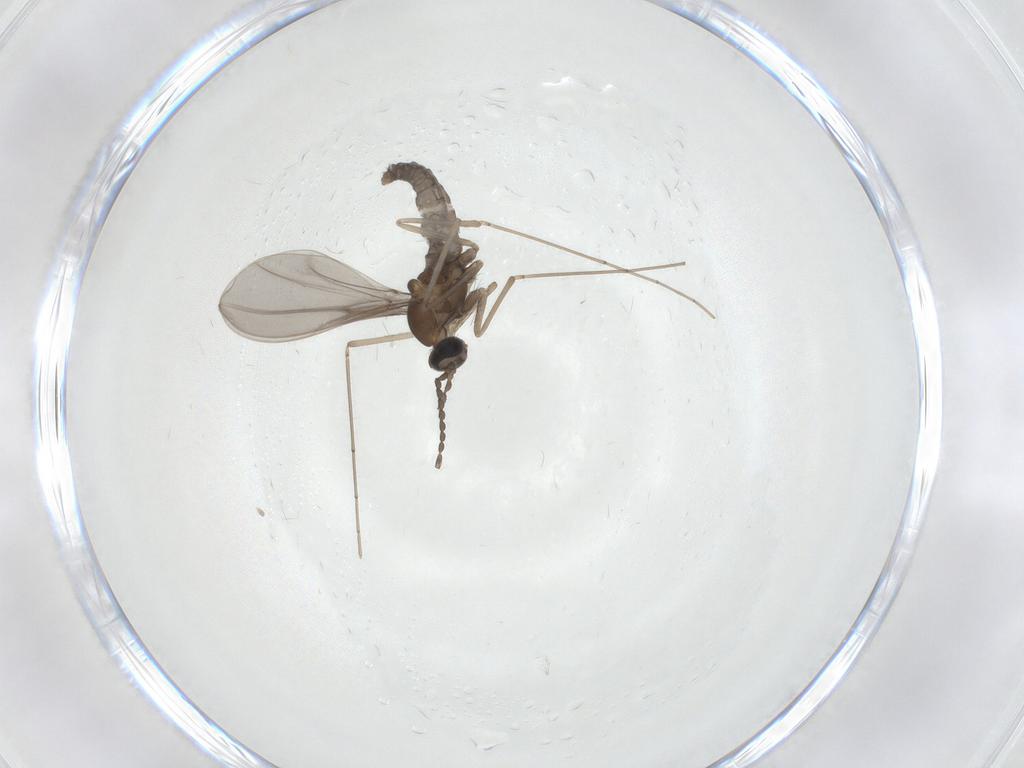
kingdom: Animalia
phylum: Arthropoda
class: Insecta
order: Diptera
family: Cecidomyiidae
